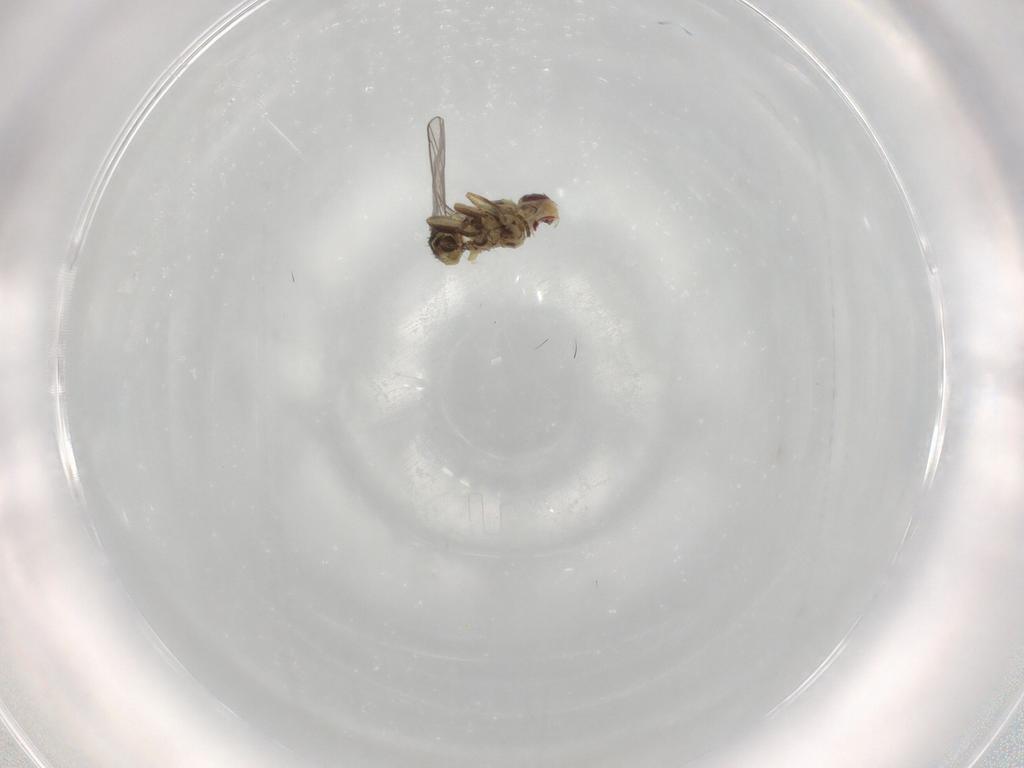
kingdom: Animalia
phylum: Arthropoda
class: Insecta
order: Diptera
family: Agromyzidae
